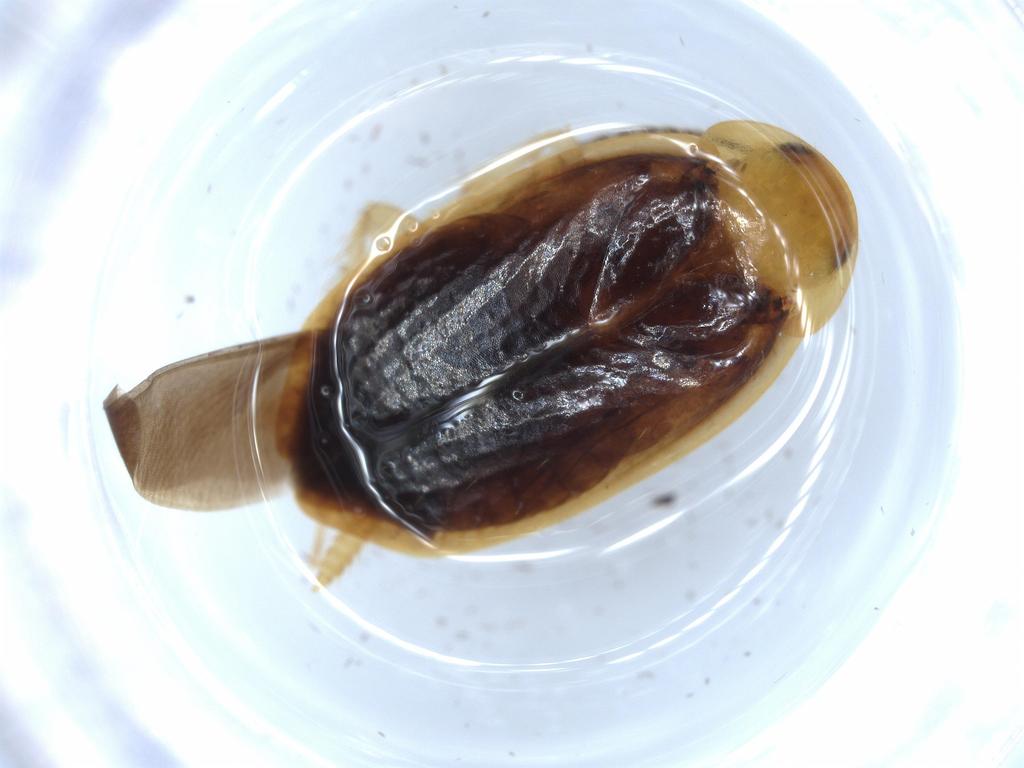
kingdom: Animalia
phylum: Arthropoda
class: Insecta
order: Blattodea
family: Tryonicidae
